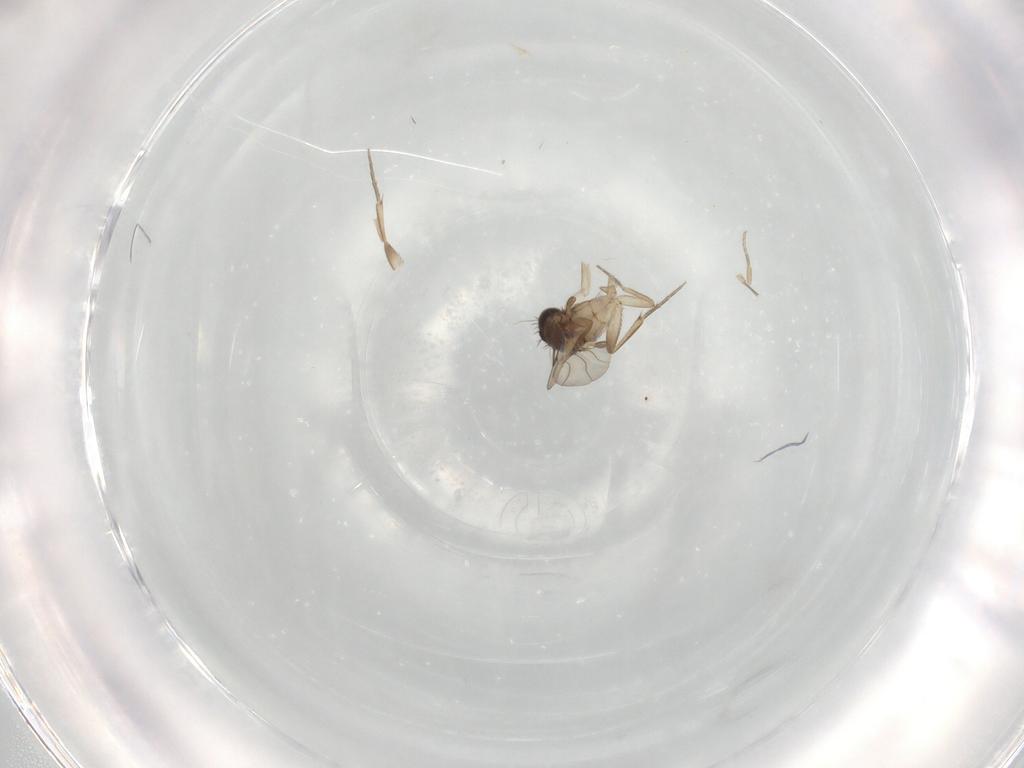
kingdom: Animalia
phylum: Arthropoda
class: Insecta
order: Diptera
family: Phoridae
